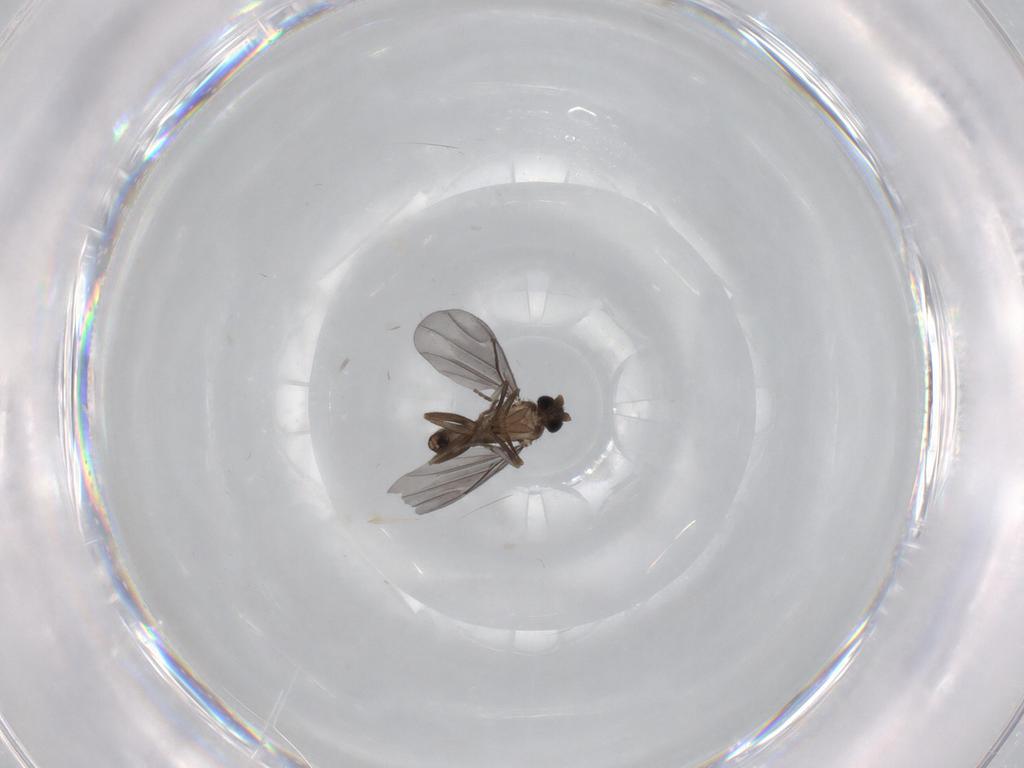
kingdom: Animalia
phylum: Arthropoda
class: Insecta
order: Diptera
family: Phoridae
